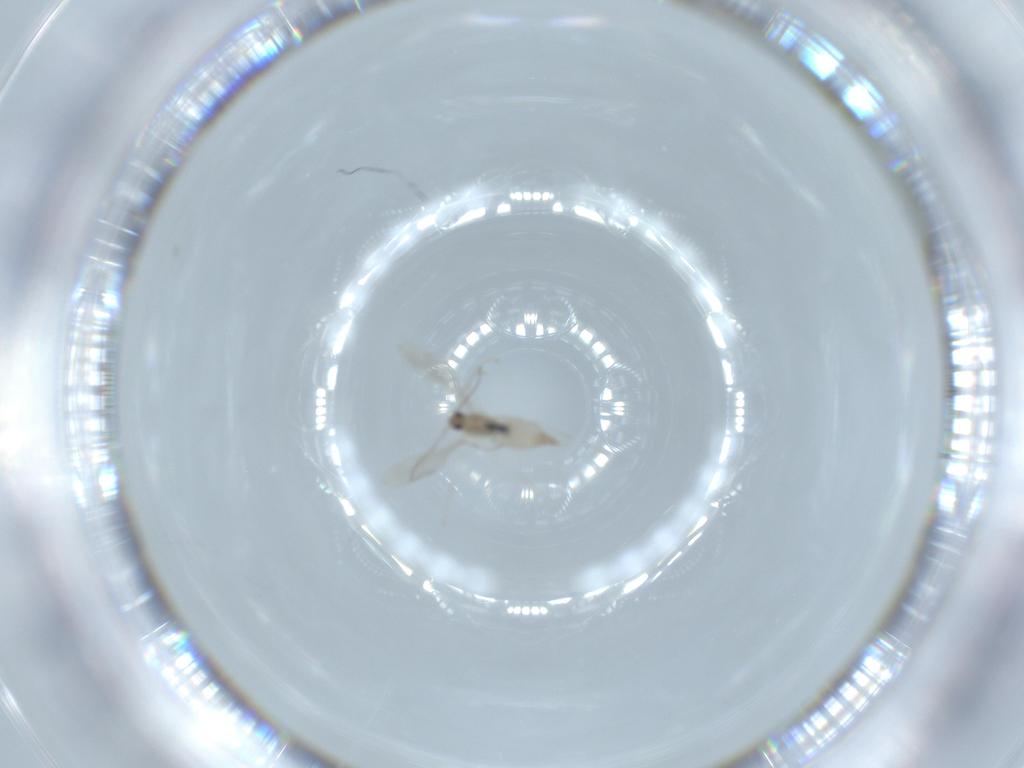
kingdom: Animalia
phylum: Arthropoda
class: Insecta
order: Diptera
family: Cecidomyiidae
